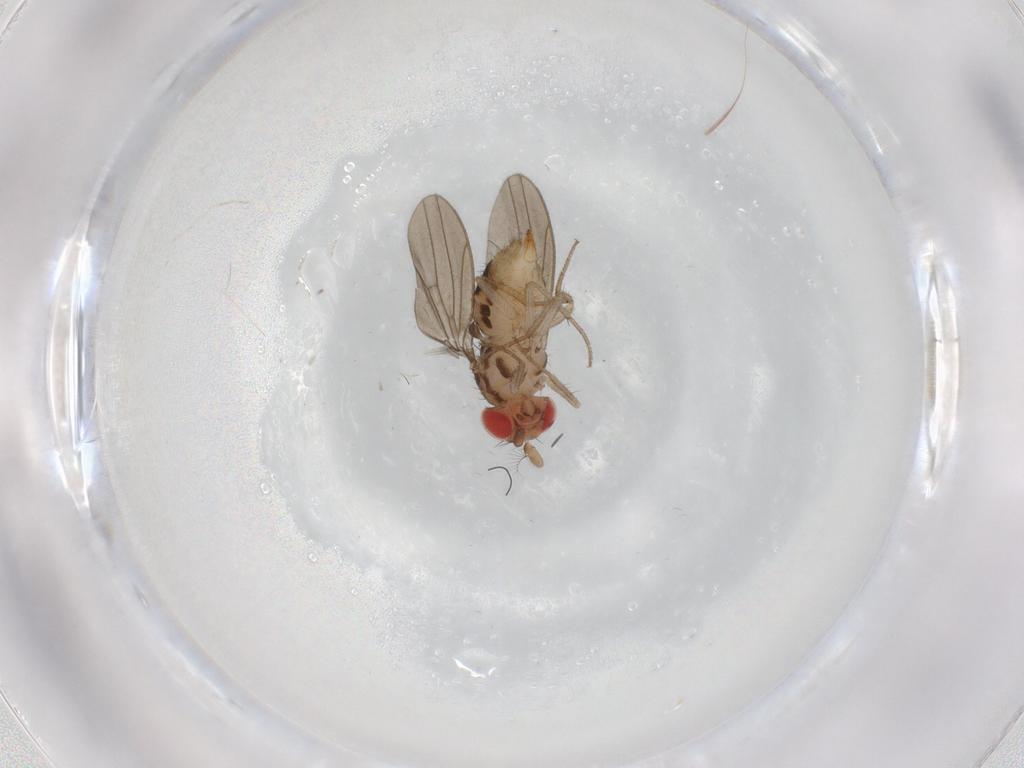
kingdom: Animalia
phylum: Arthropoda
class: Insecta
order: Diptera
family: Drosophilidae
